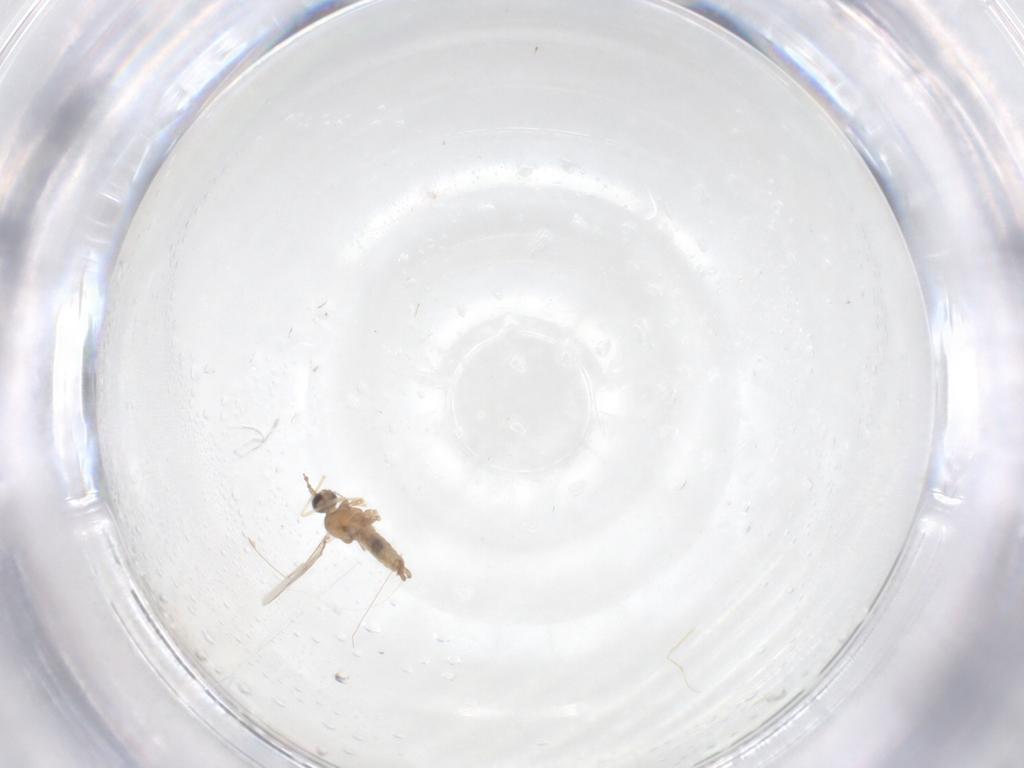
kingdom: Animalia
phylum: Arthropoda
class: Insecta
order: Diptera
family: Cecidomyiidae
